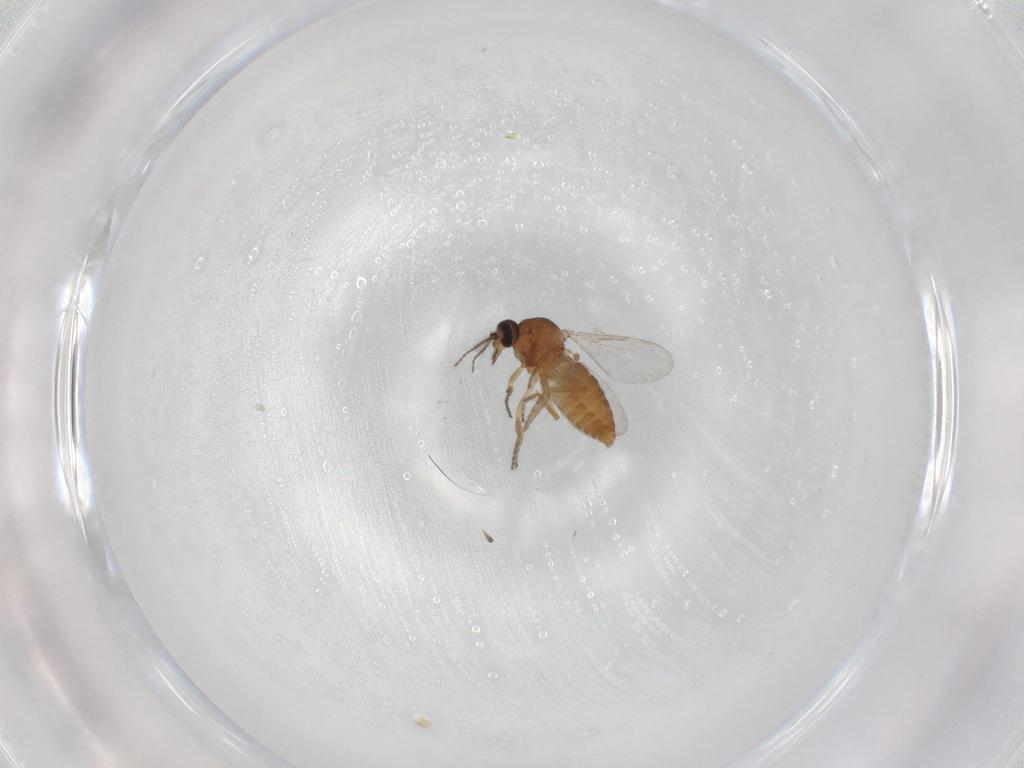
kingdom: Animalia
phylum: Arthropoda
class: Insecta
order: Diptera
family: Ceratopogonidae
